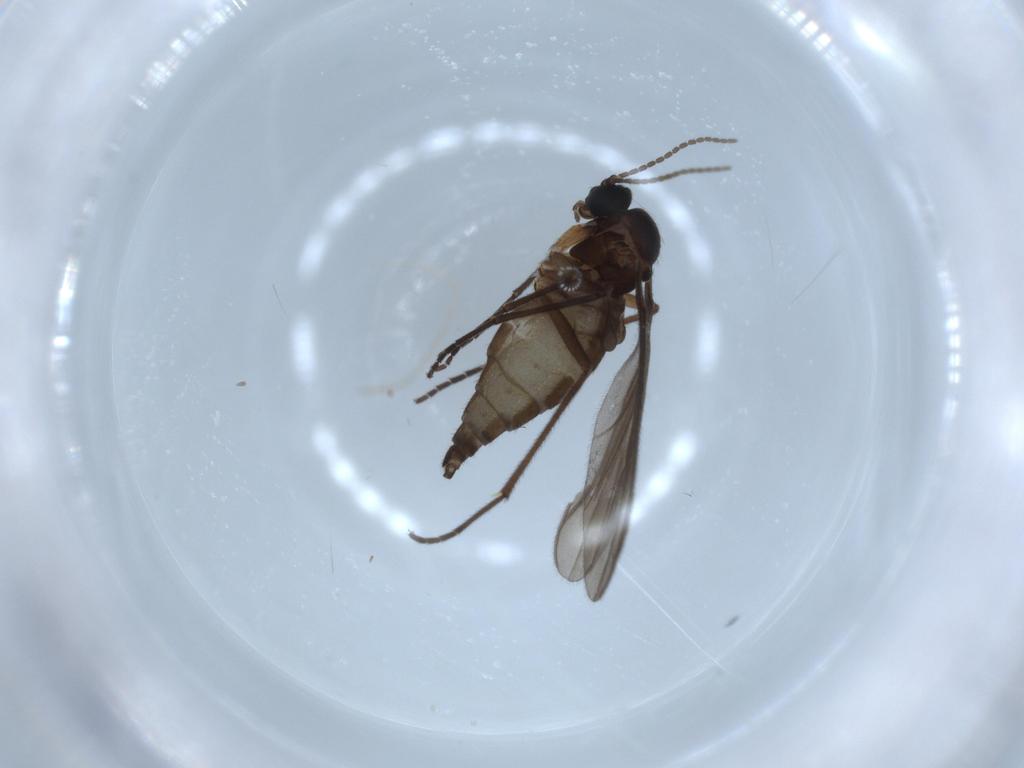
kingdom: Animalia
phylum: Arthropoda
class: Insecta
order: Diptera
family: Sciaridae
